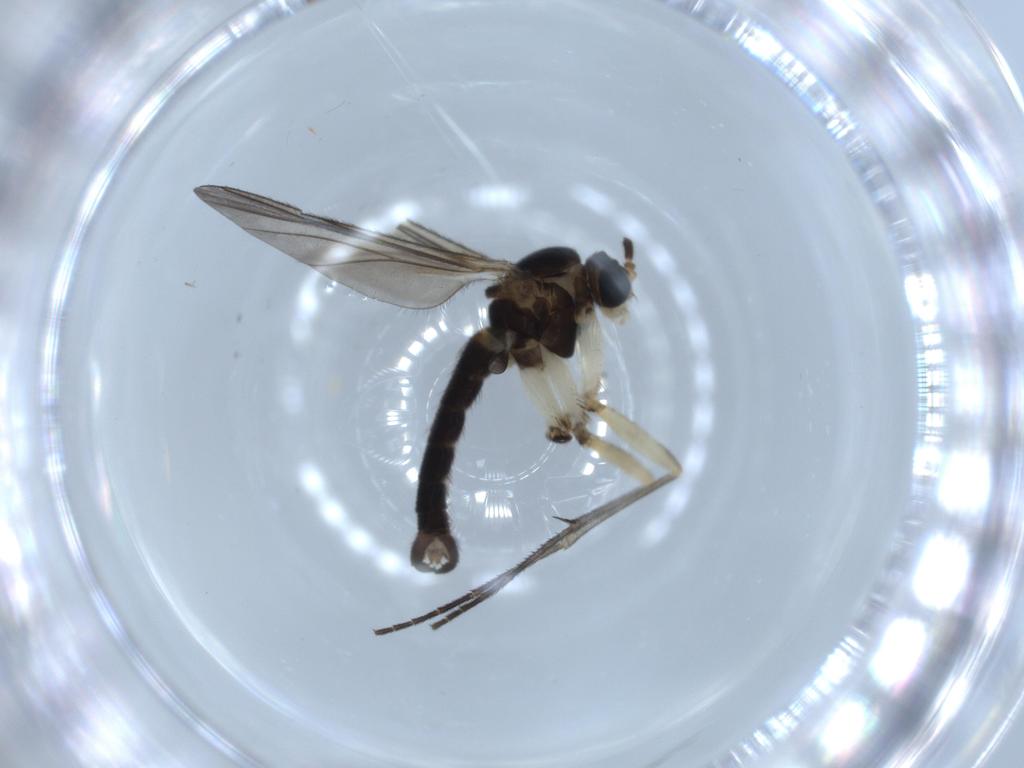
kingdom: Animalia
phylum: Arthropoda
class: Insecta
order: Diptera
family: Sciaridae
